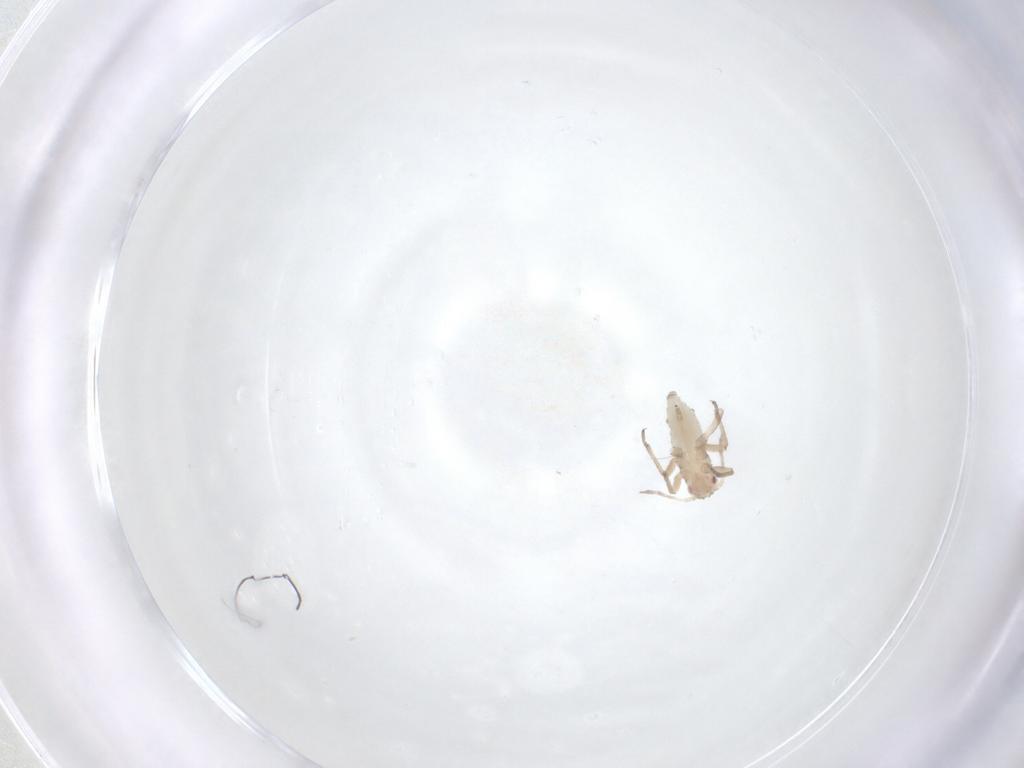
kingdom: Animalia
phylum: Arthropoda
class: Insecta
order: Hemiptera
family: Aphididae
